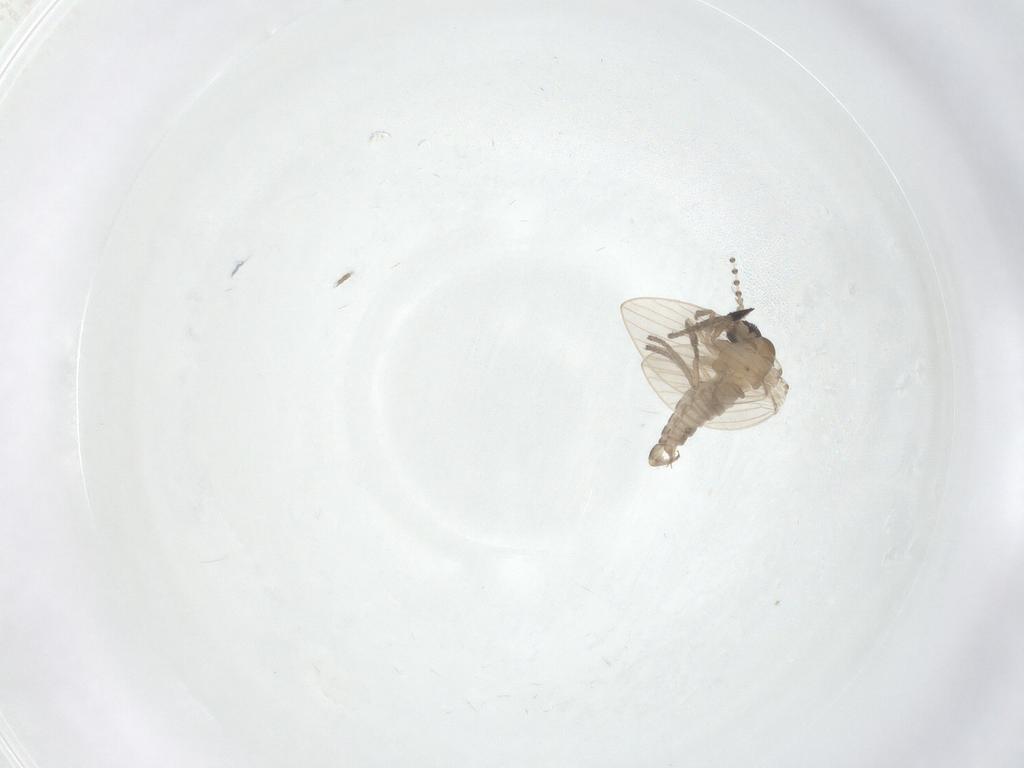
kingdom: Animalia
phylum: Arthropoda
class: Insecta
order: Diptera
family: Psychodidae
